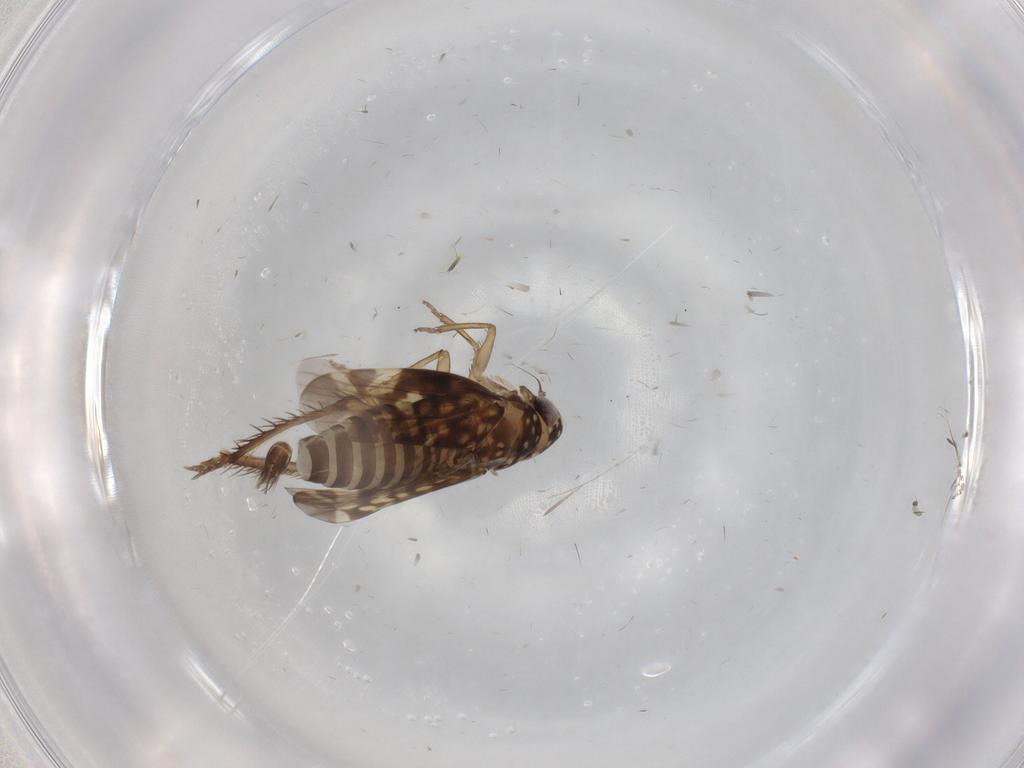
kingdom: Animalia
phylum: Arthropoda
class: Insecta
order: Hemiptera
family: Cicadellidae
